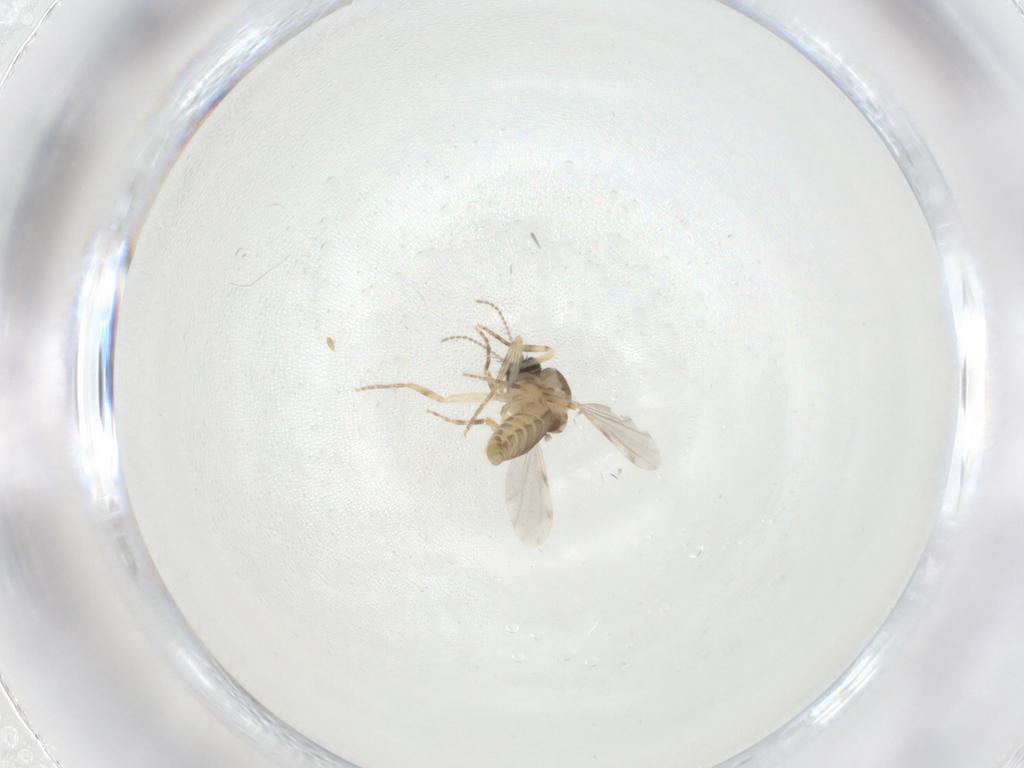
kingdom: Animalia
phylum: Arthropoda
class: Insecta
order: Diptera
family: Ceratopogonidae
